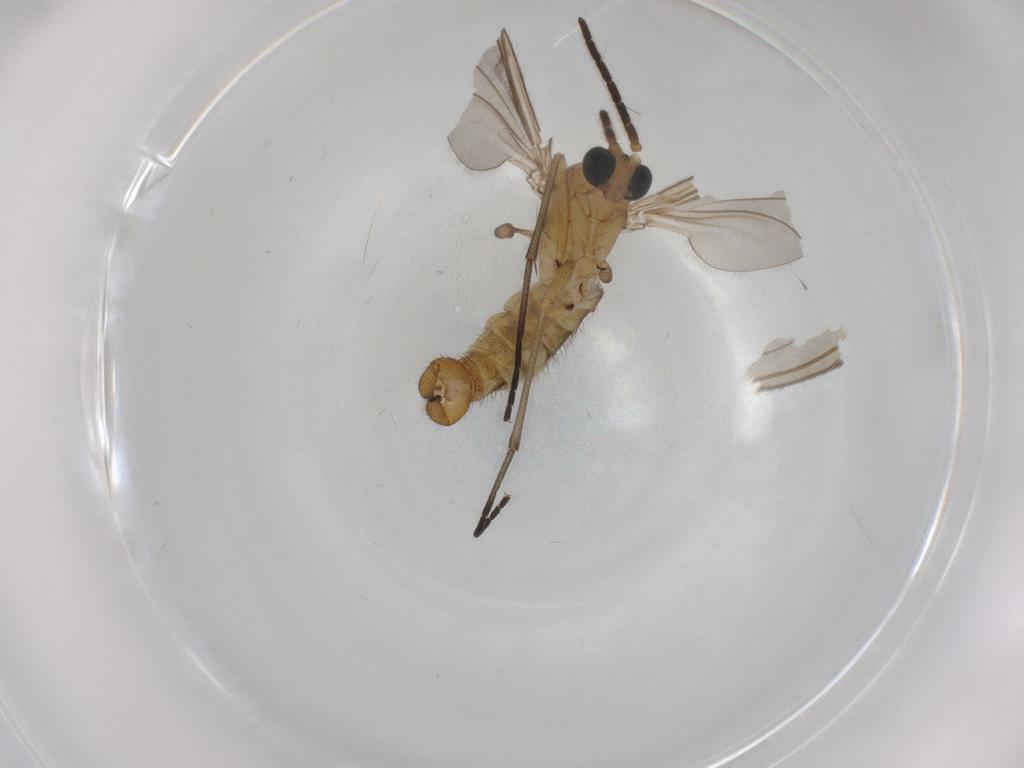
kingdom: Animalia
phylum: Arthropoda
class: Insecta
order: Diptera
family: Sciaridae
